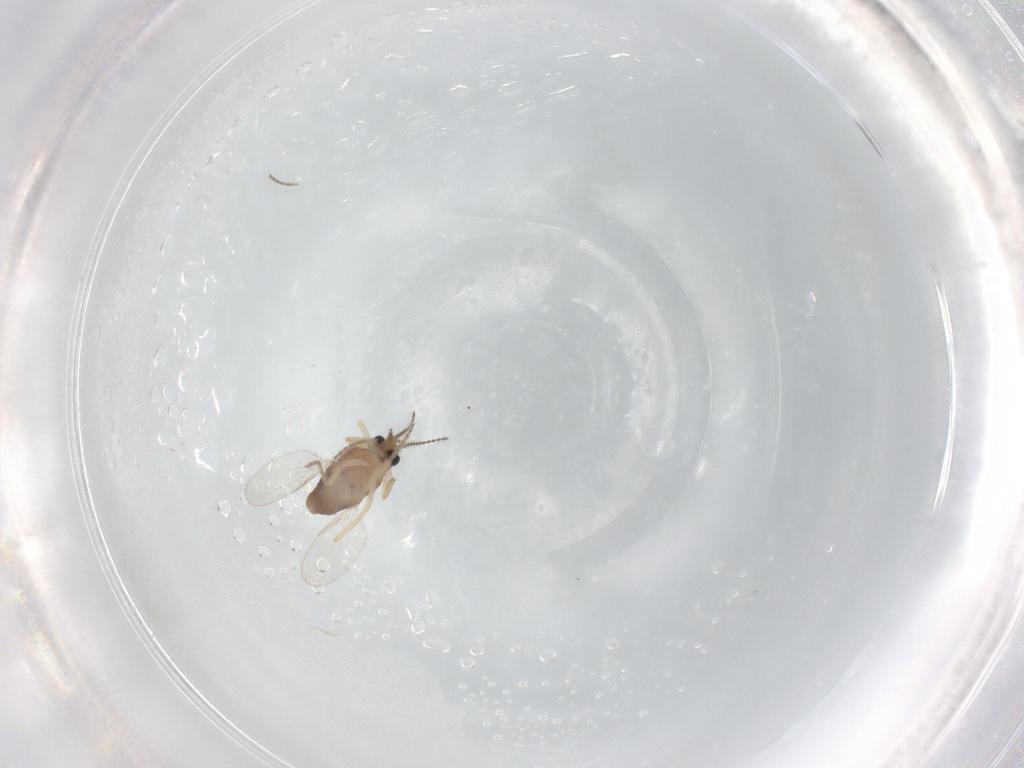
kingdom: Animalia
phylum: Arthropoda
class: Insecta
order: Diptera
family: Ceratopogonidae
